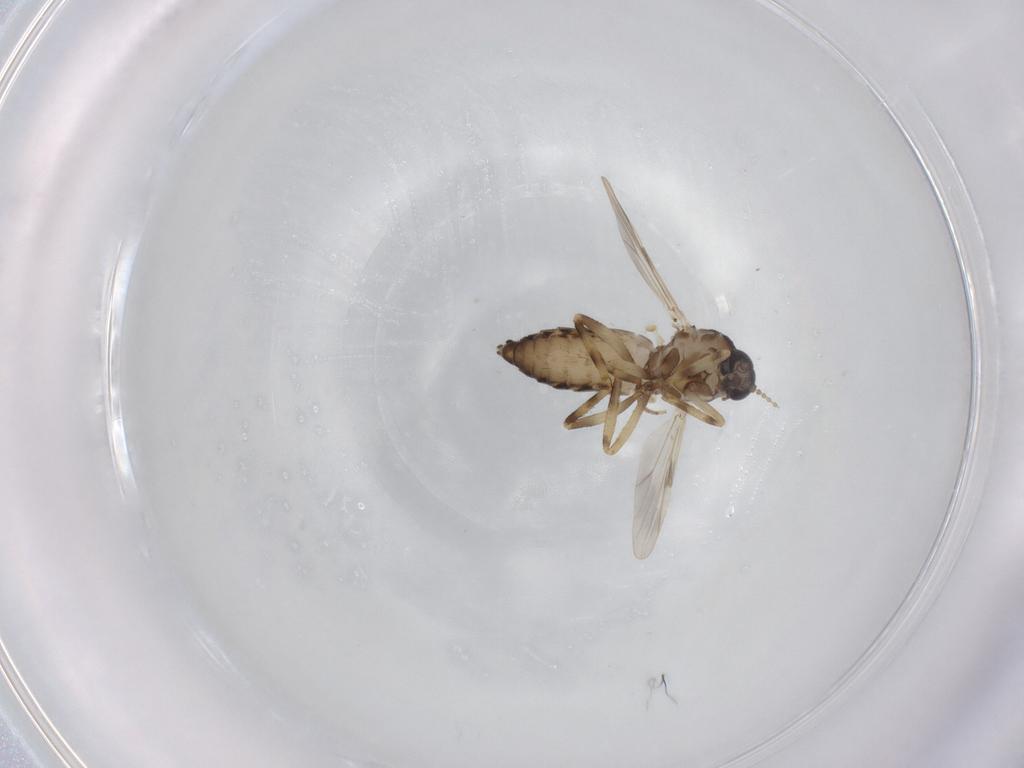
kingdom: Animalia
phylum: Arthropoda
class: Insecta
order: Diptera
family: Ceratopogonidae
